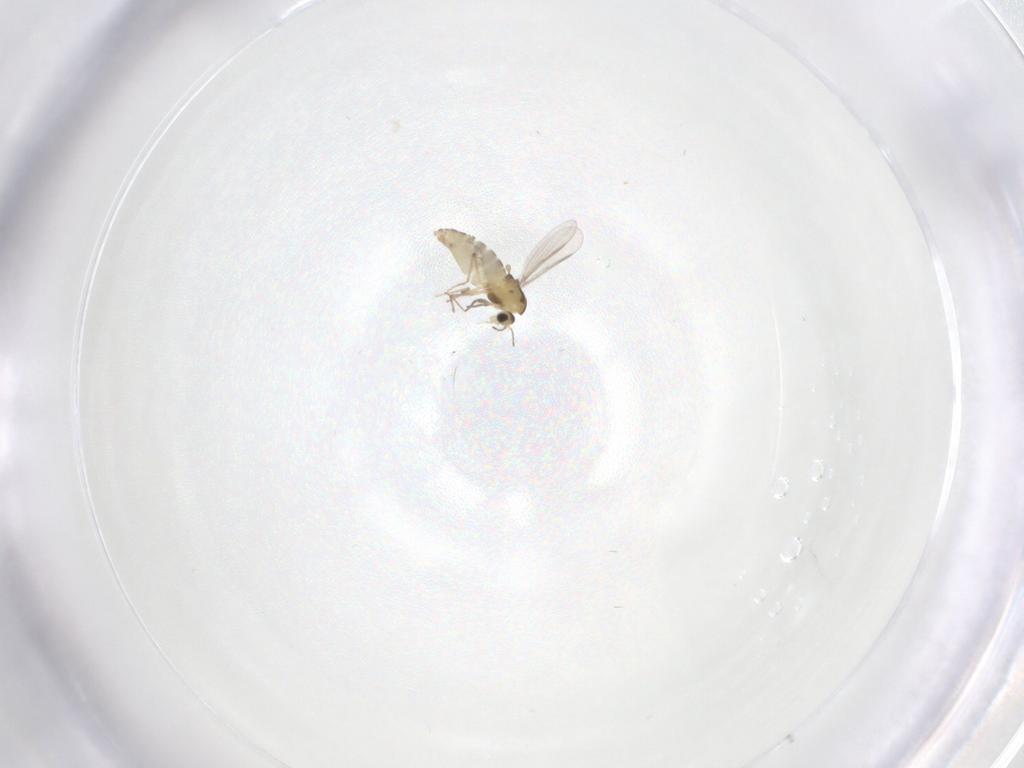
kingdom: Animalia
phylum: Arthropoda
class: Insecta
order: Diptera
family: Chironomidae
